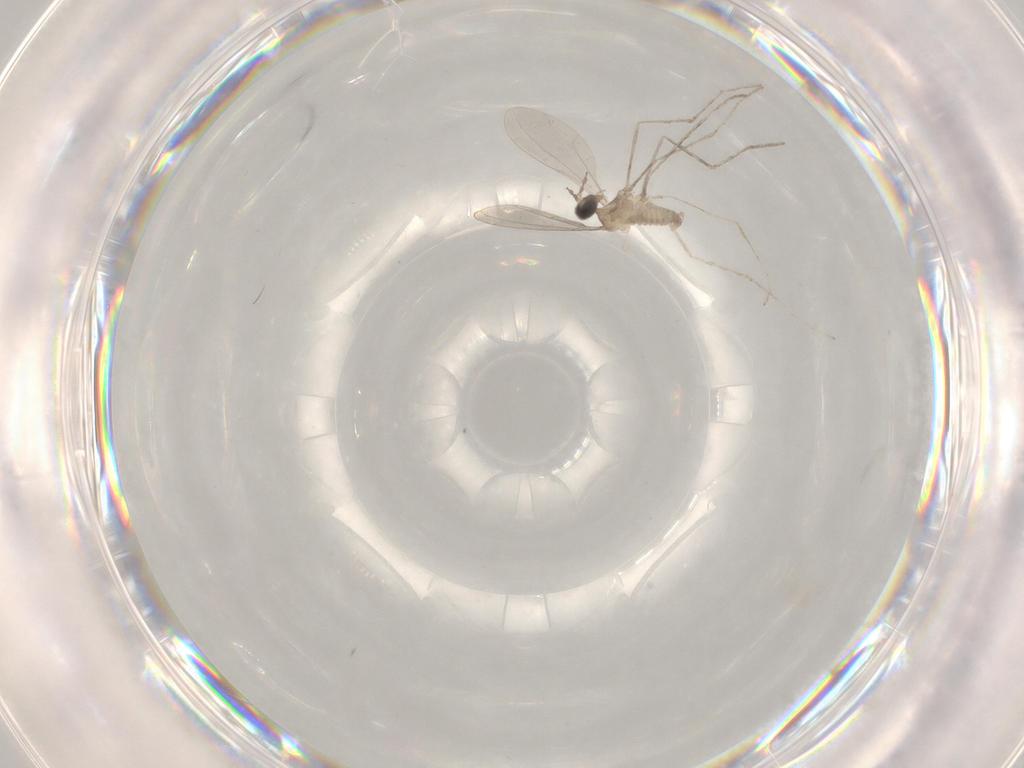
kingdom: Animalia
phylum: Arthropoda
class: Insecta
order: Diptera
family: Cecidomyiidae
